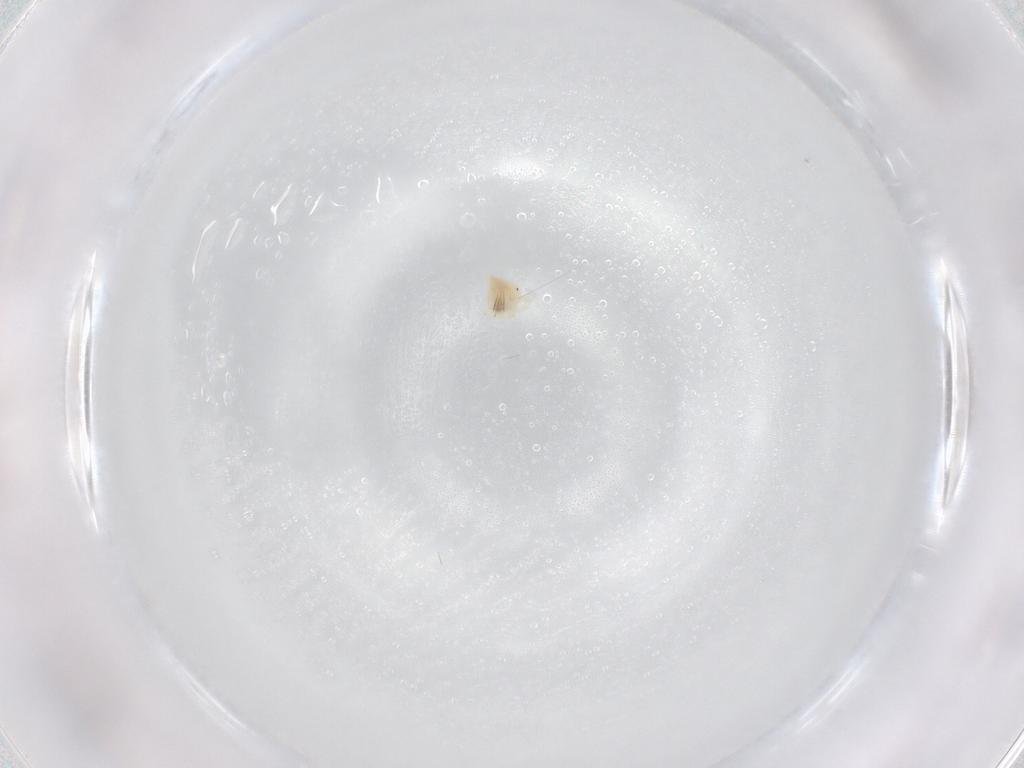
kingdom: Animalia
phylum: Arthropoda
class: Arachnida
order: Trombidiformes
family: Anystidae
